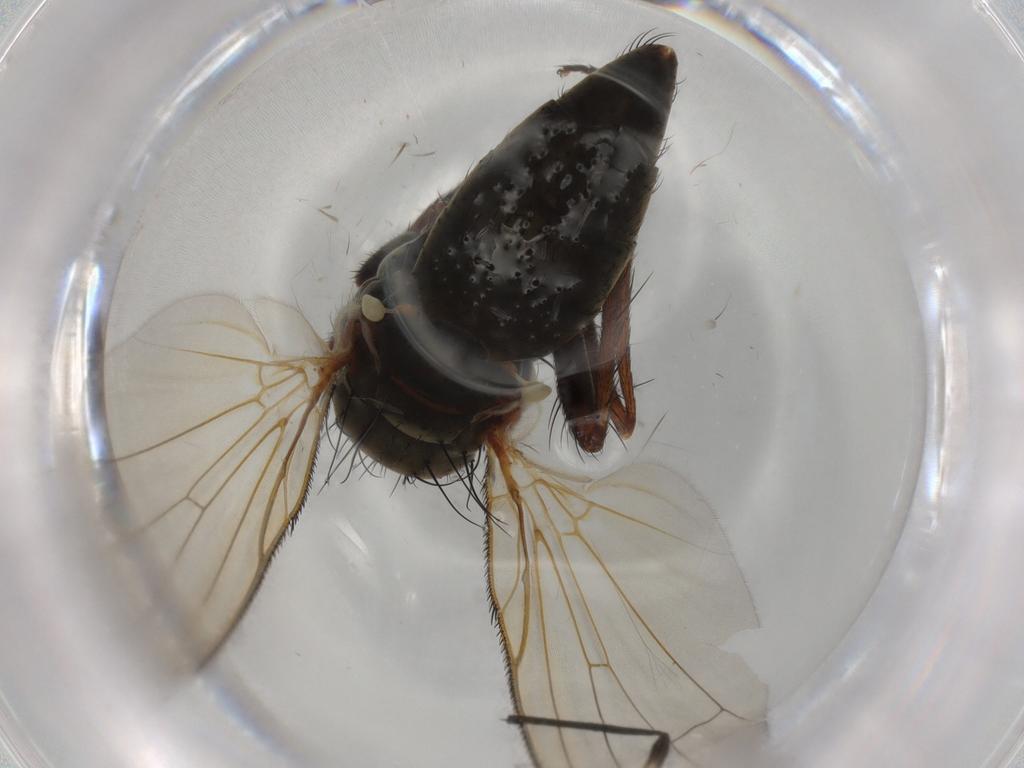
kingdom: Animalia
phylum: Arthropoda
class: Insecta
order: Diptera
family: Anthomyiidae
